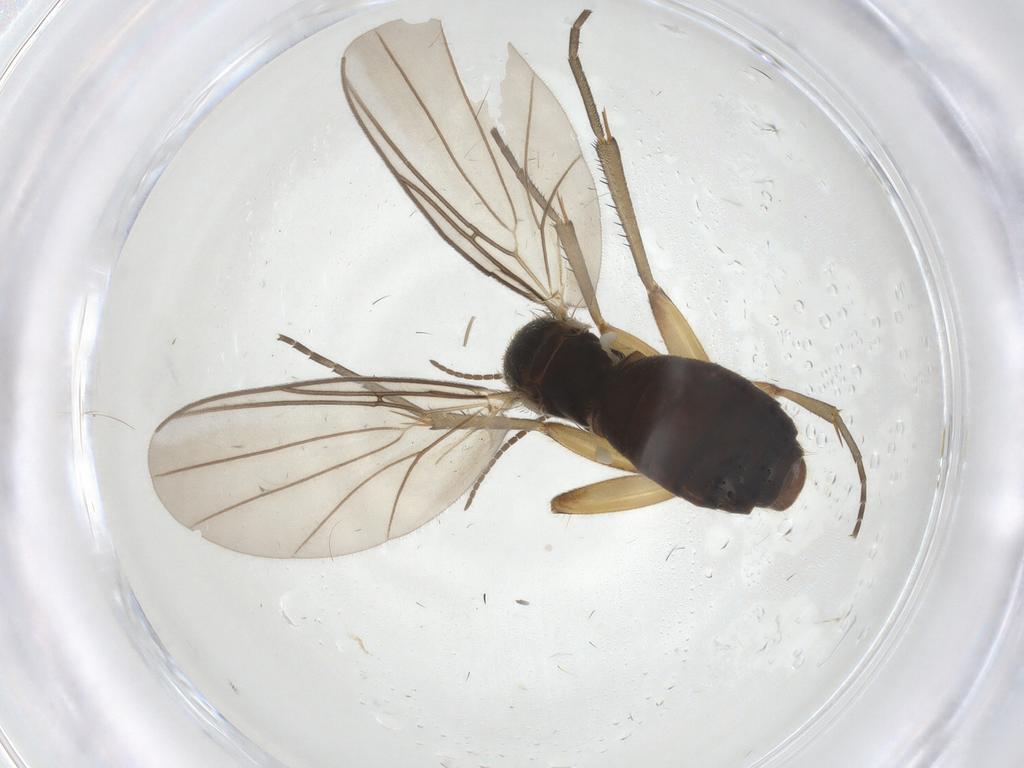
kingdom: Animalia
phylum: Arthropoda
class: Insecta
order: Diptera
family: Mycetophilidae
